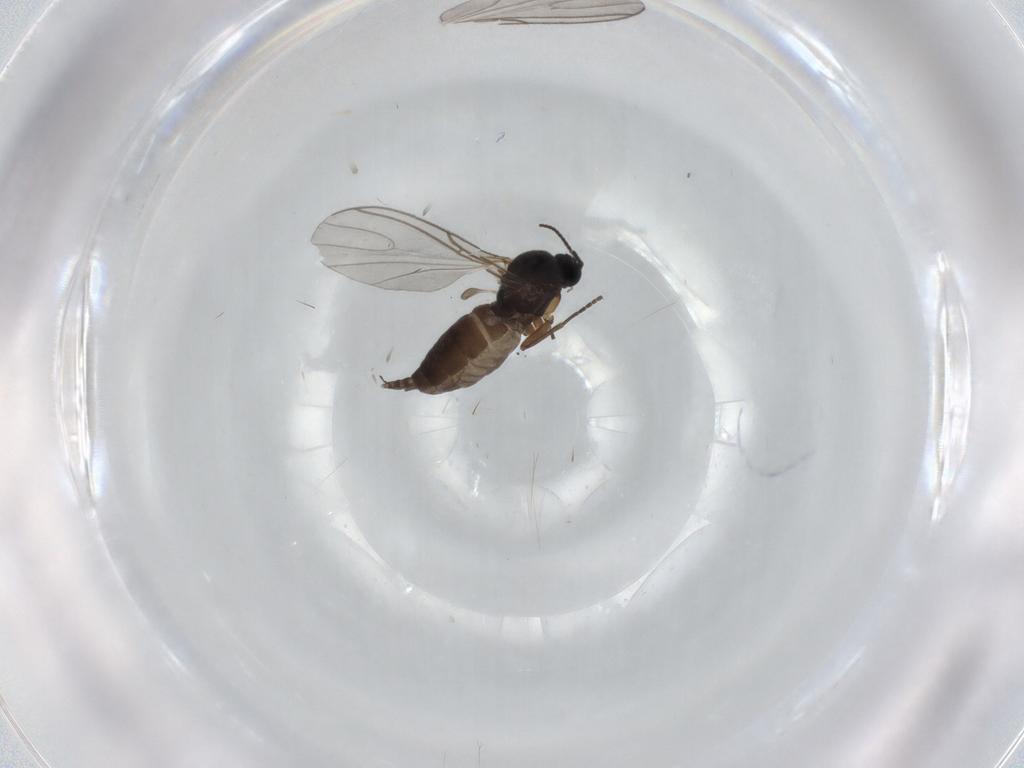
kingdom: Animalia
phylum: Arthropoda
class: Insecta
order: Diptera
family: Sciaridae
